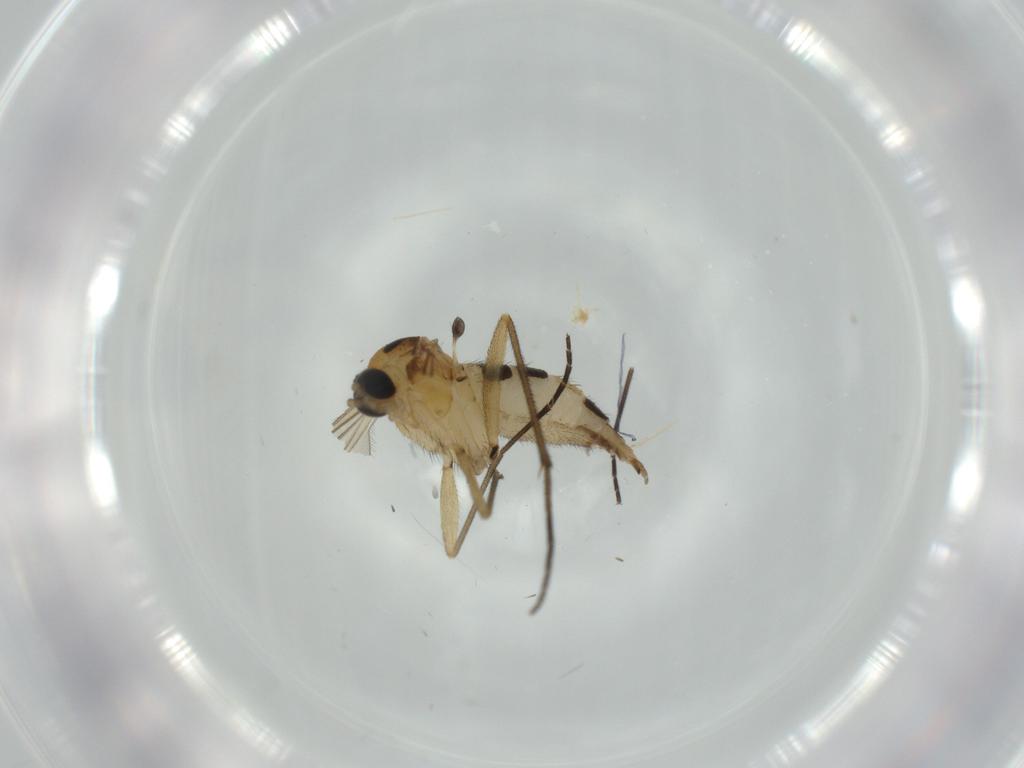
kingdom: Animalia
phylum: Arthropoda
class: Insecta
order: Diptera
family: Sciaridae
